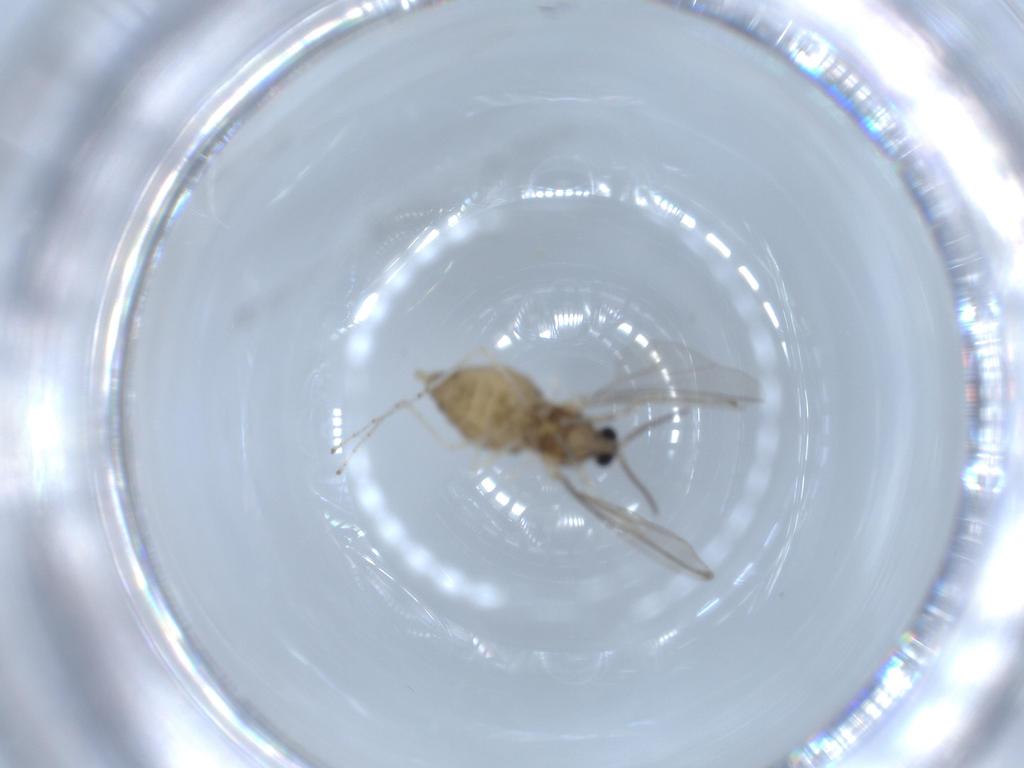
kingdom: Animalia
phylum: Arthropoda
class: Insecta
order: Diptera
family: Cecidomyiidae
